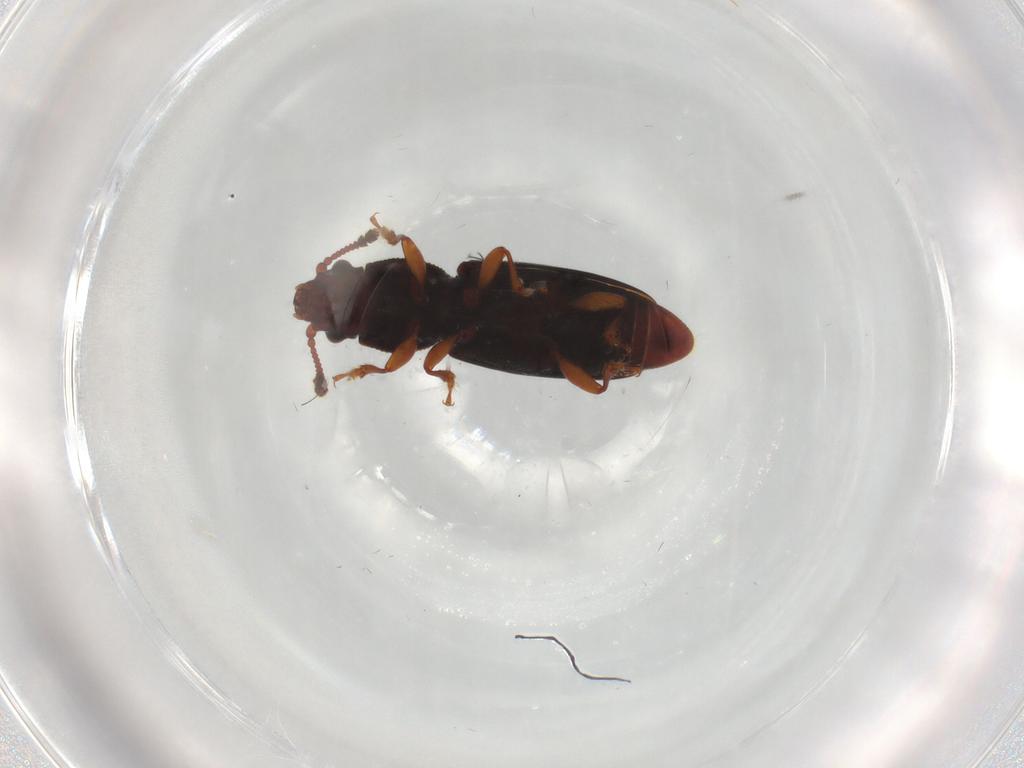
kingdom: Animalia
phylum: Arthropoda
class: Insecta
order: Coleoptera
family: Monotomidae
